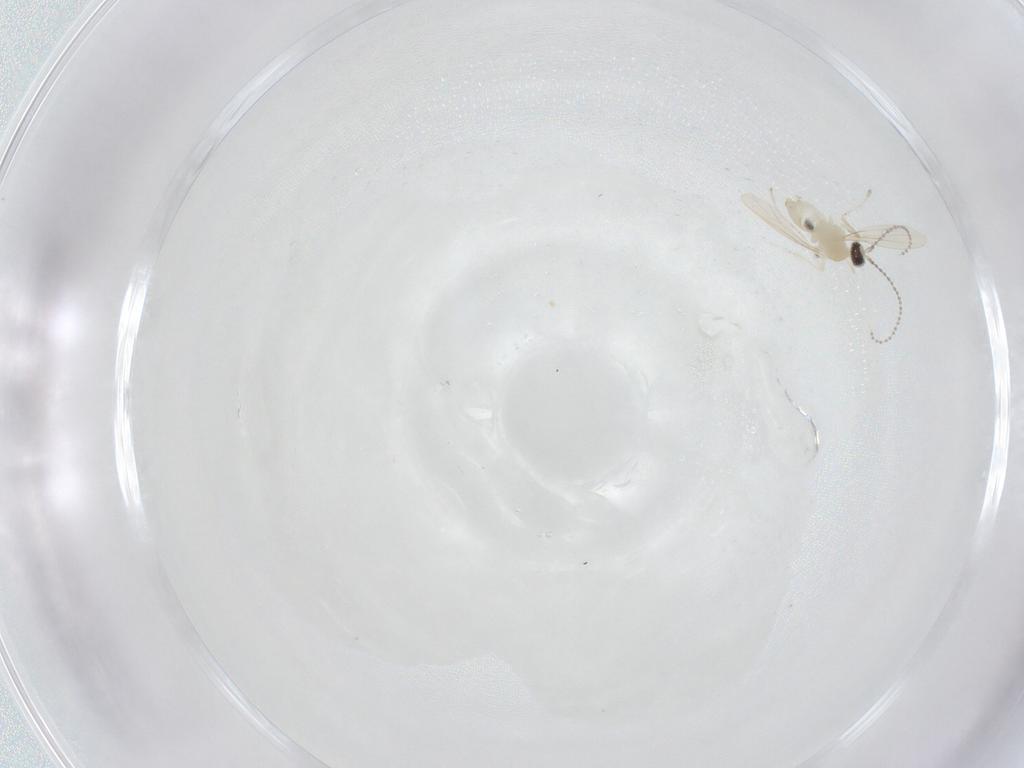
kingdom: Animalia
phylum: Arthropoda
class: Insecta
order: Diptera
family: Cecidomyiidae
